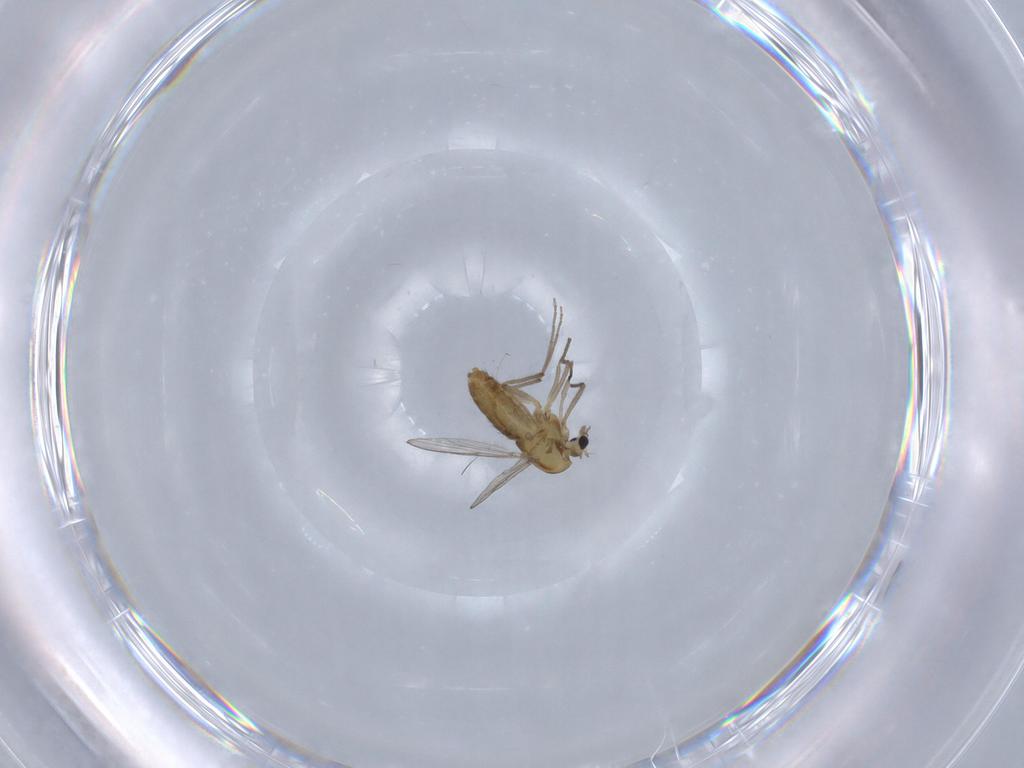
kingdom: Animalia
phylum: Arthropoda
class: Insecta
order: Diptera
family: Chironomidae
